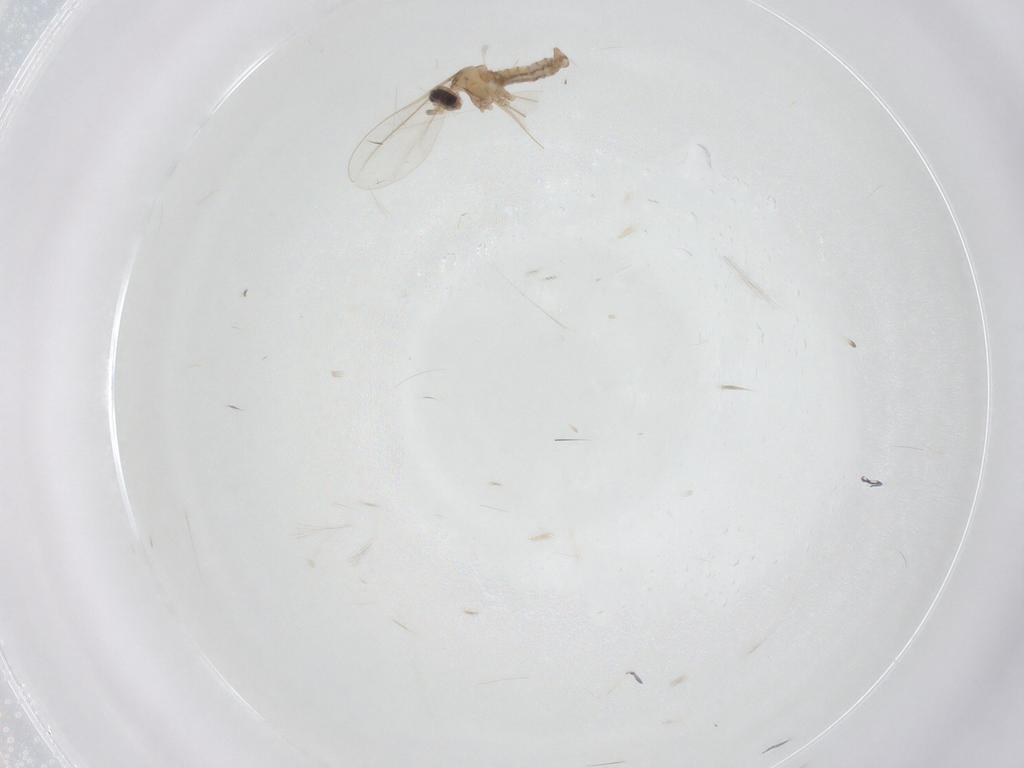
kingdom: Animalia
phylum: Arthropoda
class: Insecta
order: Diptera
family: Cecidomyiidae
